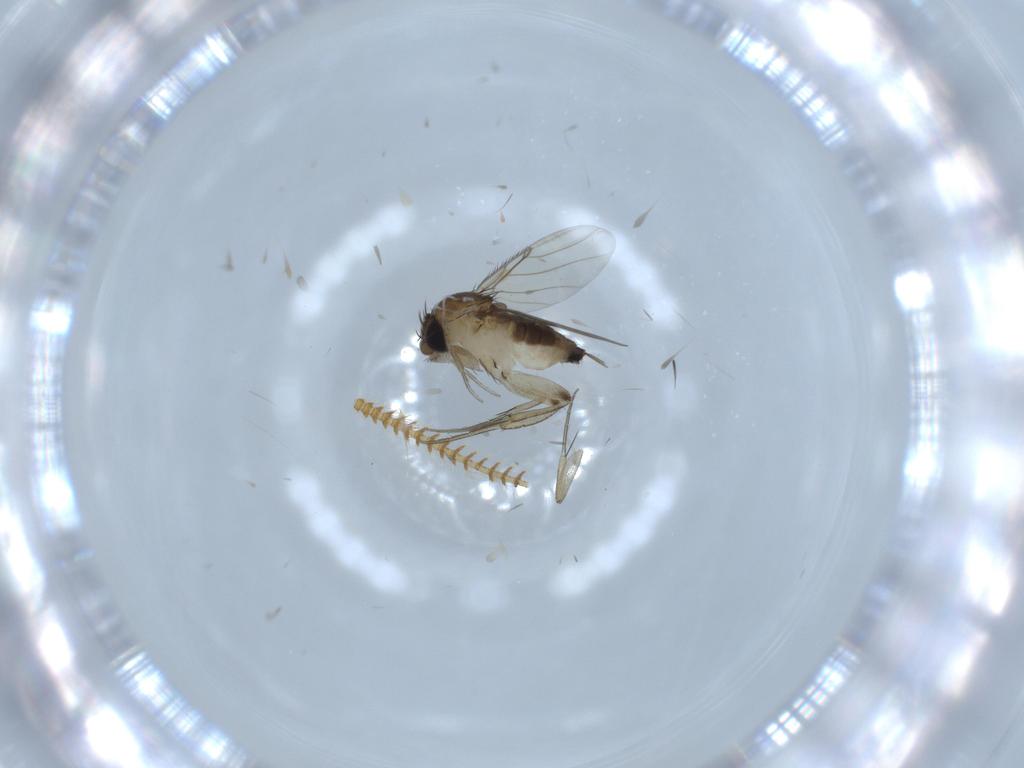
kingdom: Animalia
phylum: Arthropoda
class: Insecta
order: Diptera
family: Phoridae
